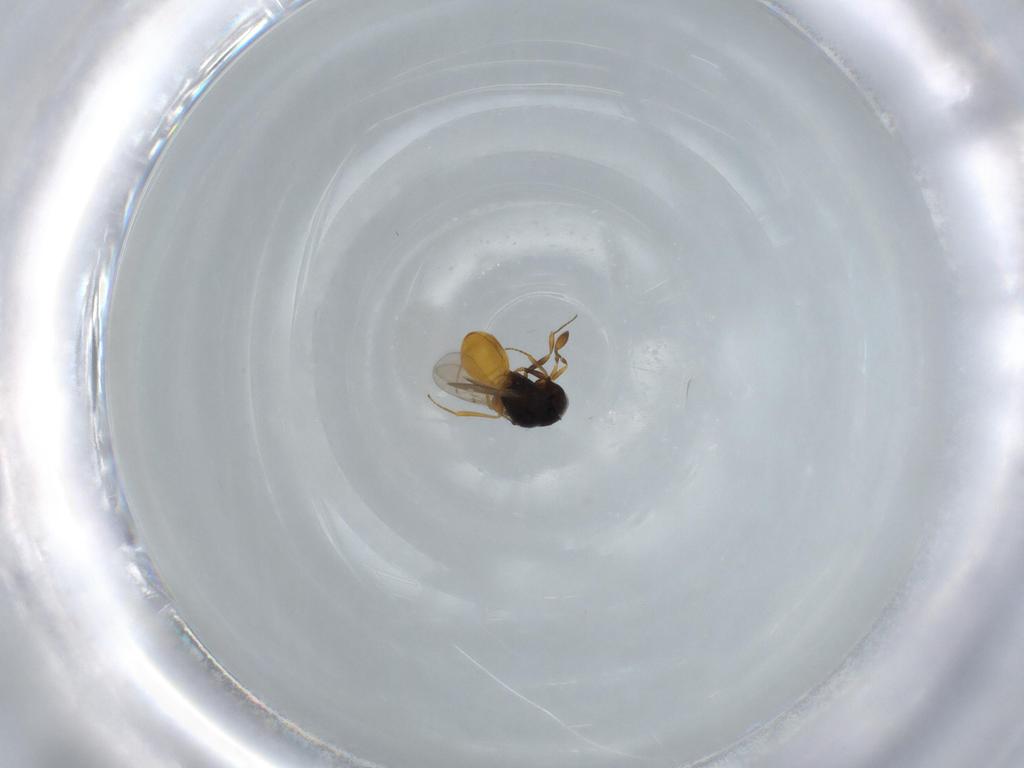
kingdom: Animalia
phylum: Arthropoda
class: Insecta
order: Hymenoptera
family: Scelionidae
